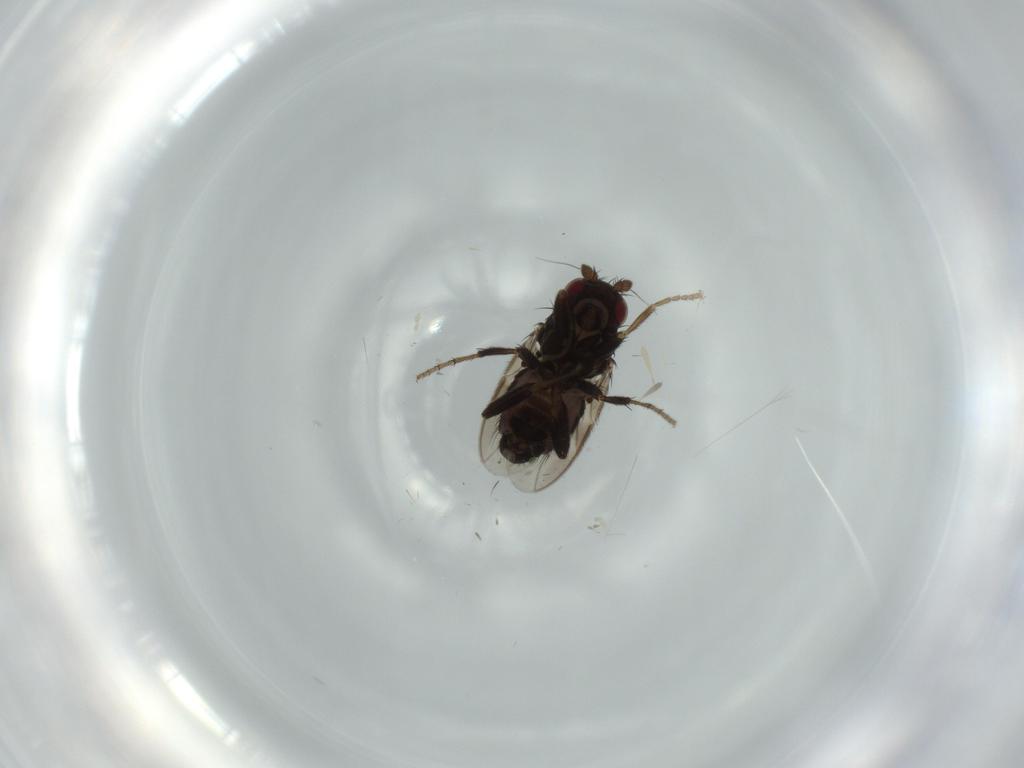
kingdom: Animalia
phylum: Arthropoda
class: Insecta
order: Diptera
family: Sphaeroceridae
